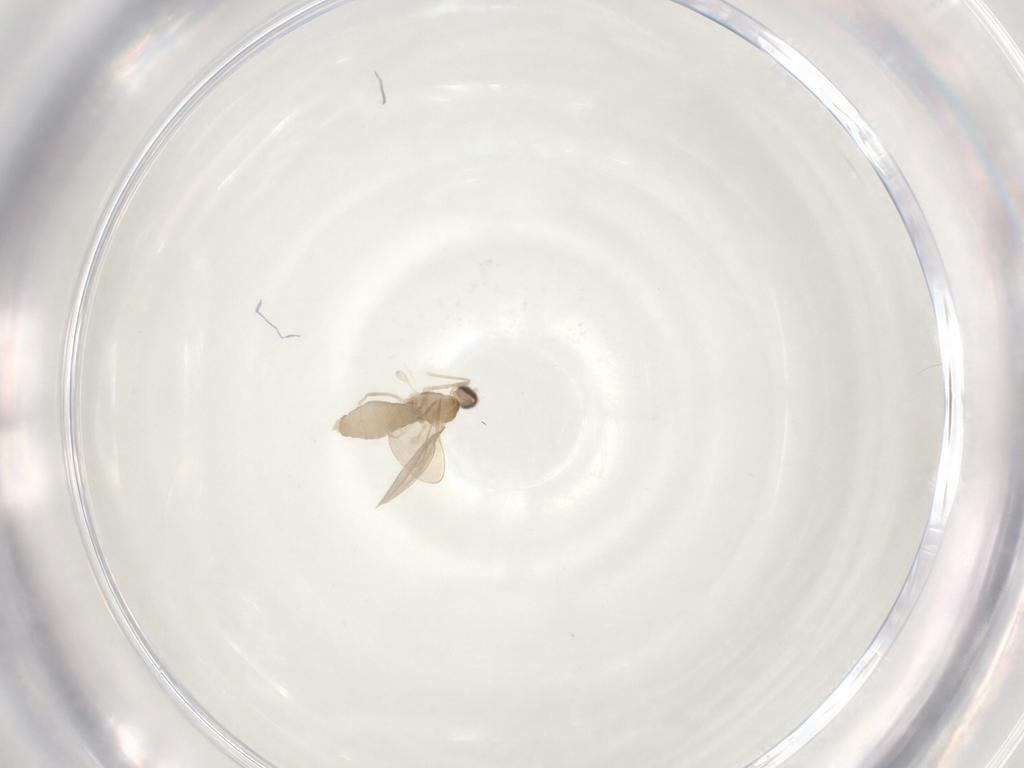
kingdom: Animalia
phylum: Arthropoda
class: Insecta
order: Diptera
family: Cecidomyiidae
